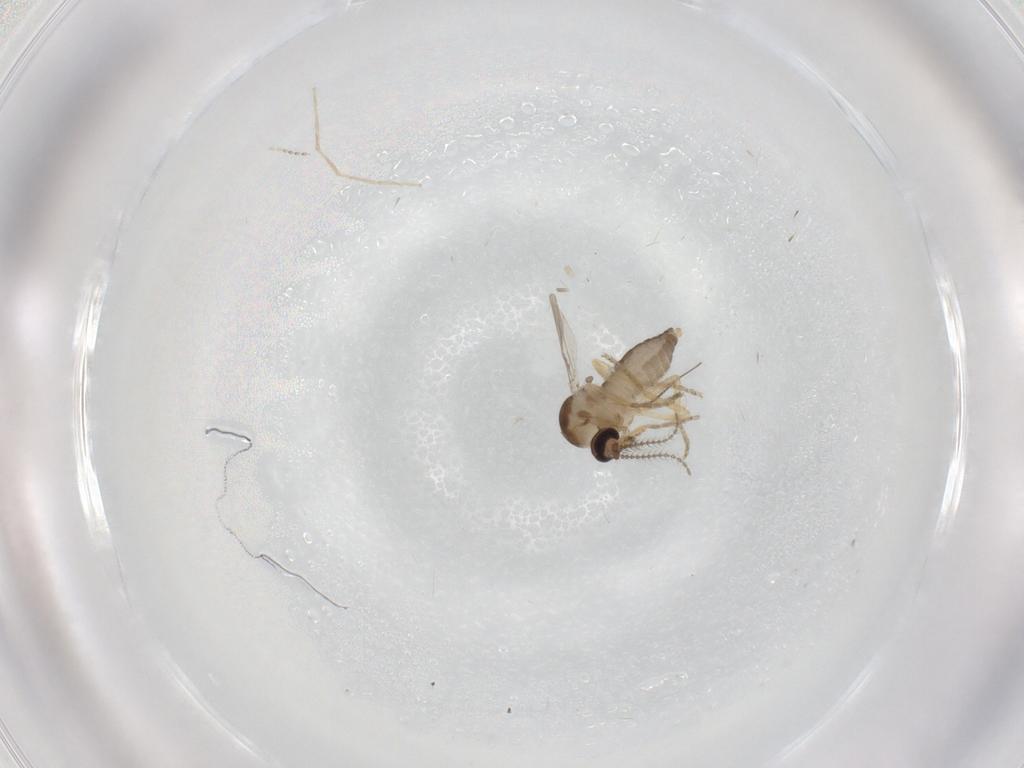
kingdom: Animalia
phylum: Arthropoda
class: Insecta
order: Diptera
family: Ceratopogonidae
